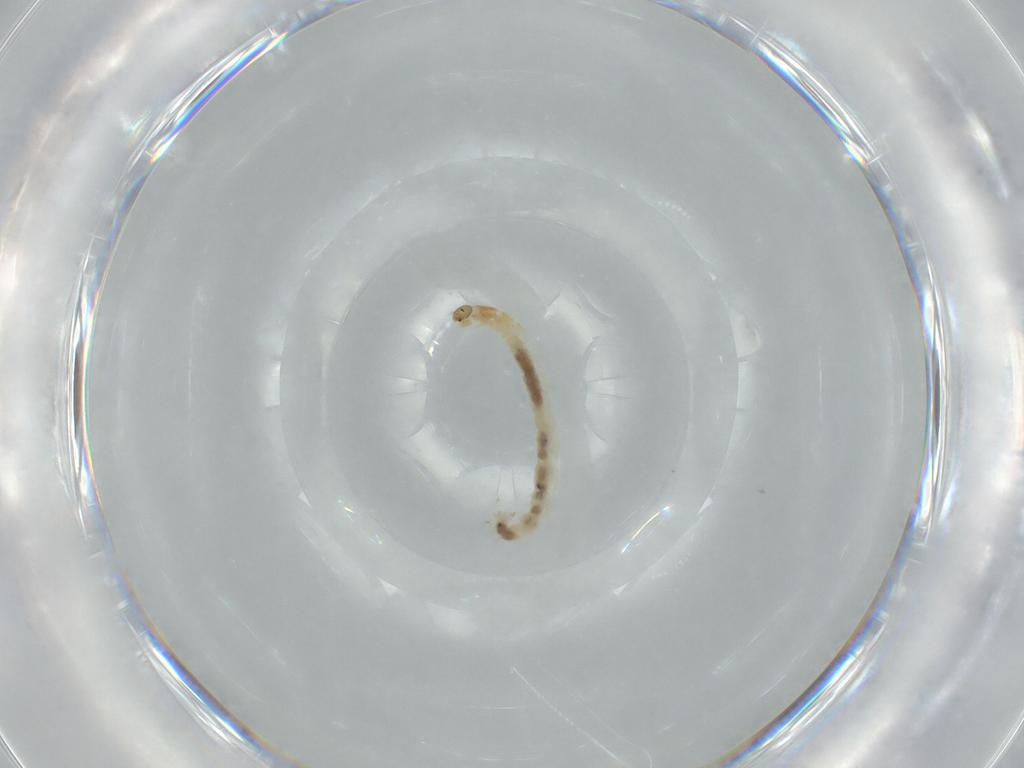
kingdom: Animalia
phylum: Arthropoda
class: Insecta
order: Diptera
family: Chironomidae
